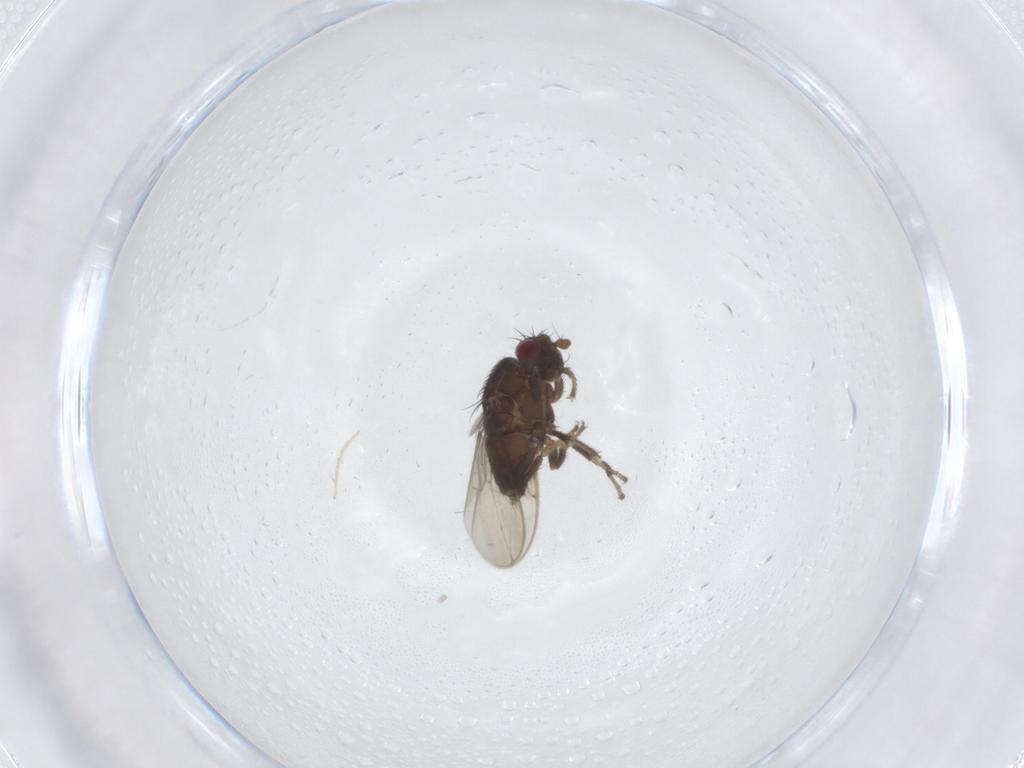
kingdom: Animalia
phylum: Arthropoda
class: Insecta
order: Diptera
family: Chironomidae
